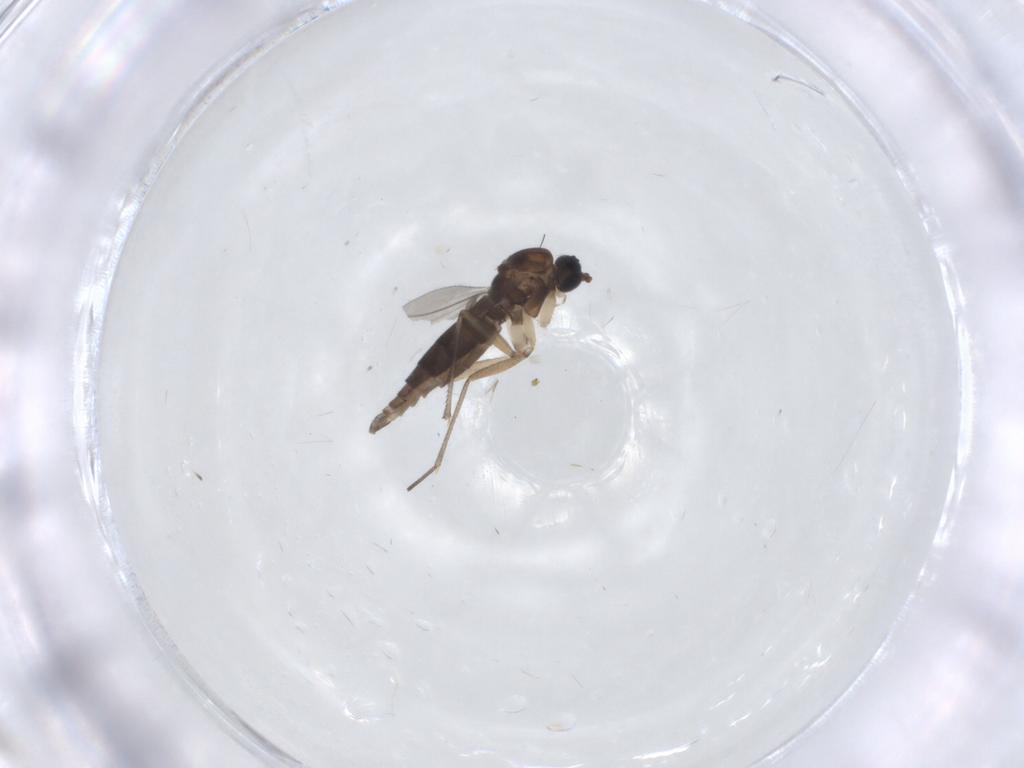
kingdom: Animalia
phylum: Arthropoda
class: Insecta
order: Diptera
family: Sciaridae
